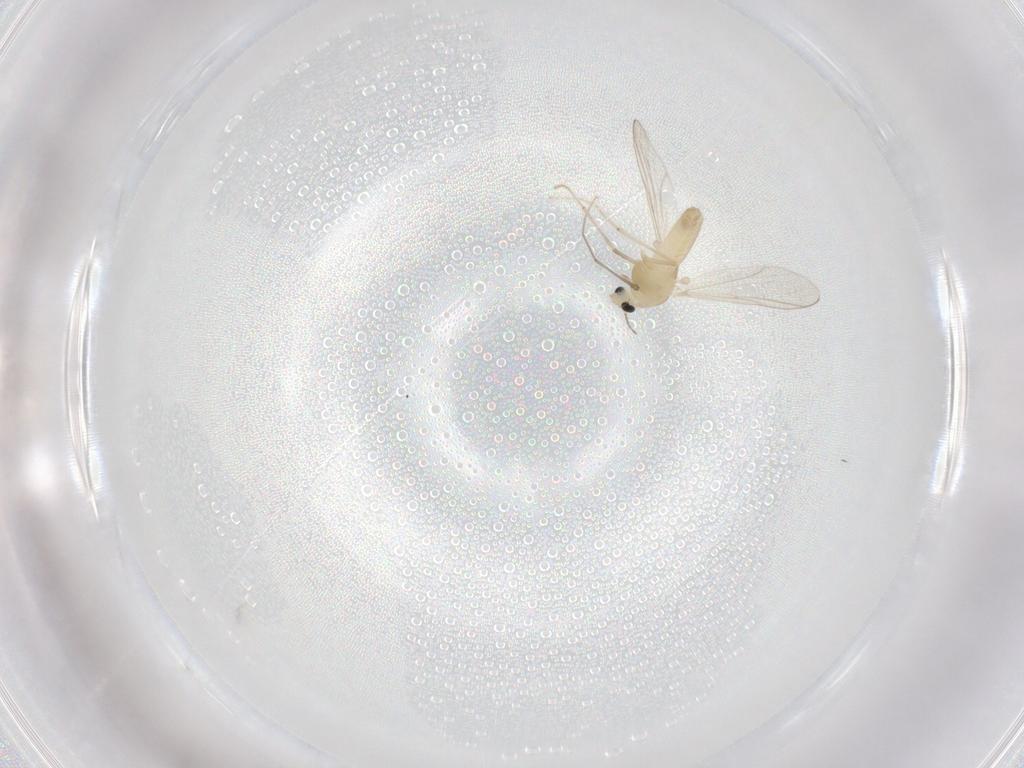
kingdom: Animalia
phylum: Arthropoda
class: Insecta
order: Diptera
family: Chironomidae
